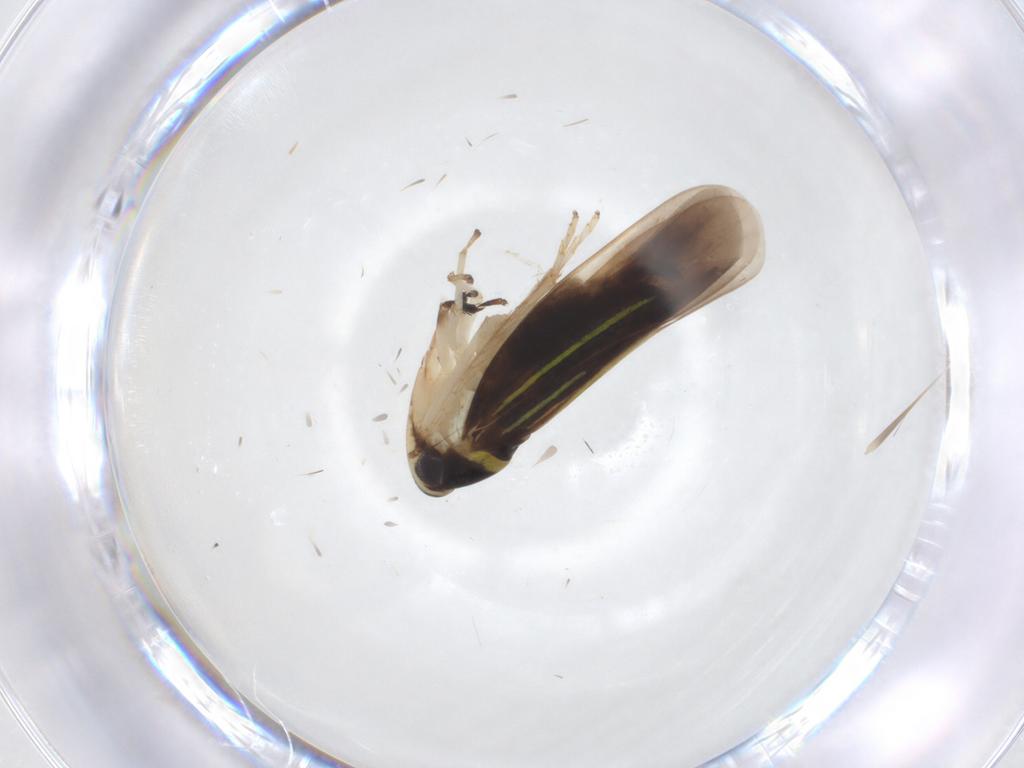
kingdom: Animalia
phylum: Arthropoda
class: Insecta
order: Hemiptera
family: Cicadellidae
